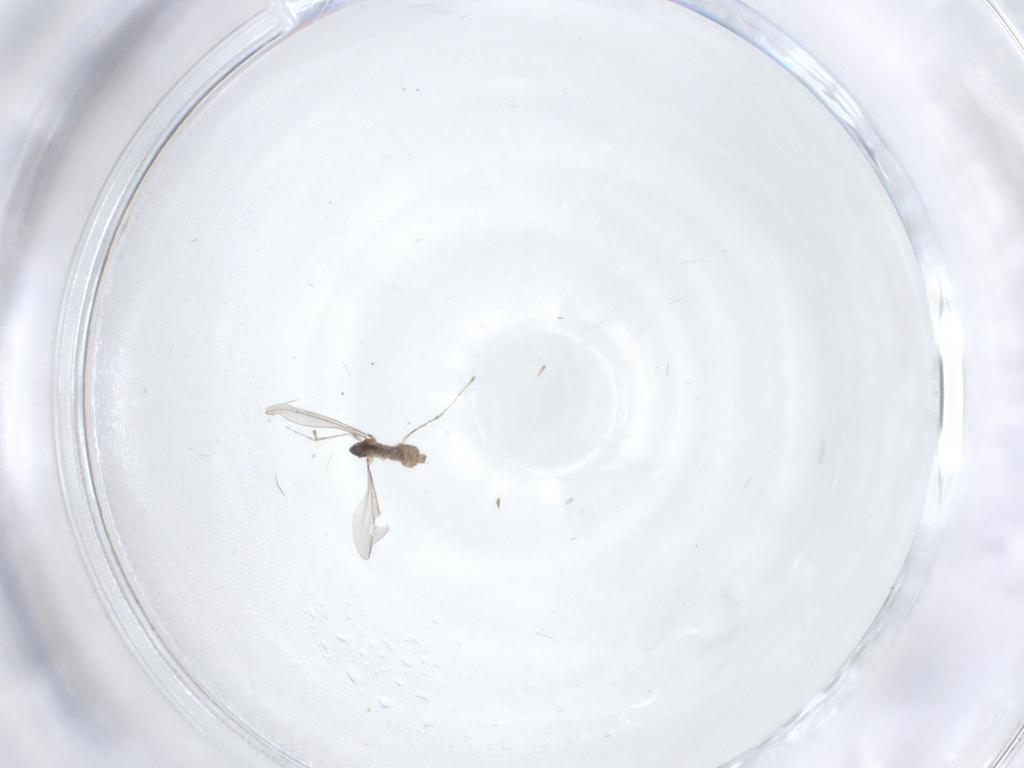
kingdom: Animalia
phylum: Arthropoda
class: Insecta
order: Diptera
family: Cecidomyiidae
